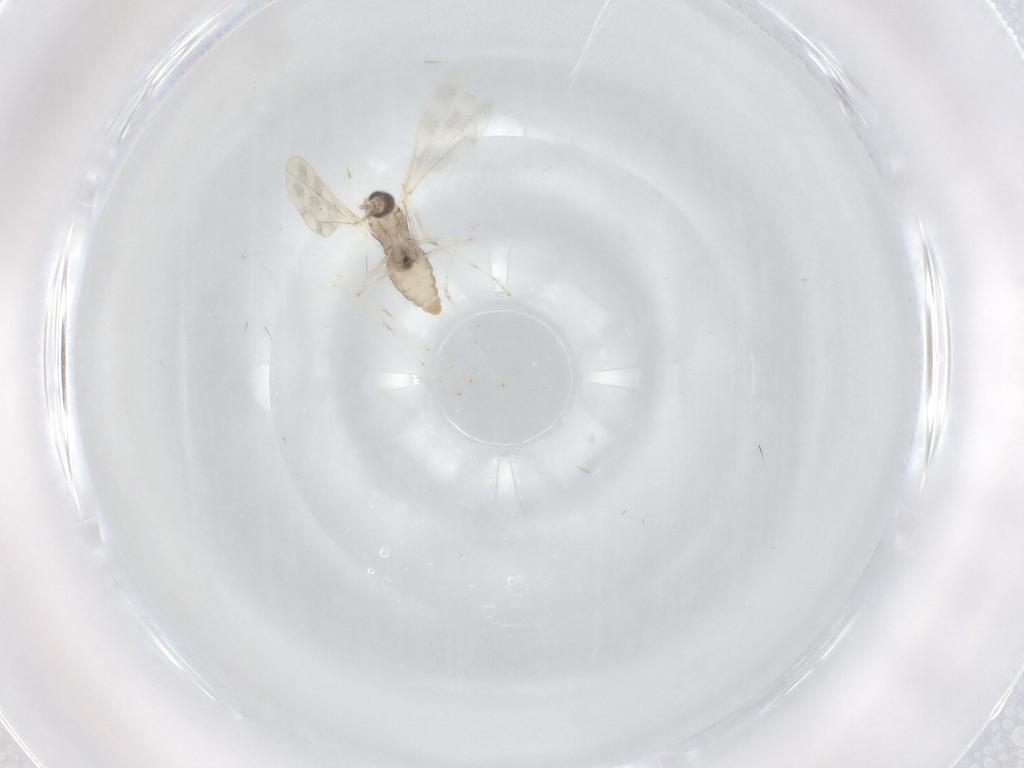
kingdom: Animalia
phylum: Arthropoda
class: Insecta
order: Diptera
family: Cecidomyiidae
